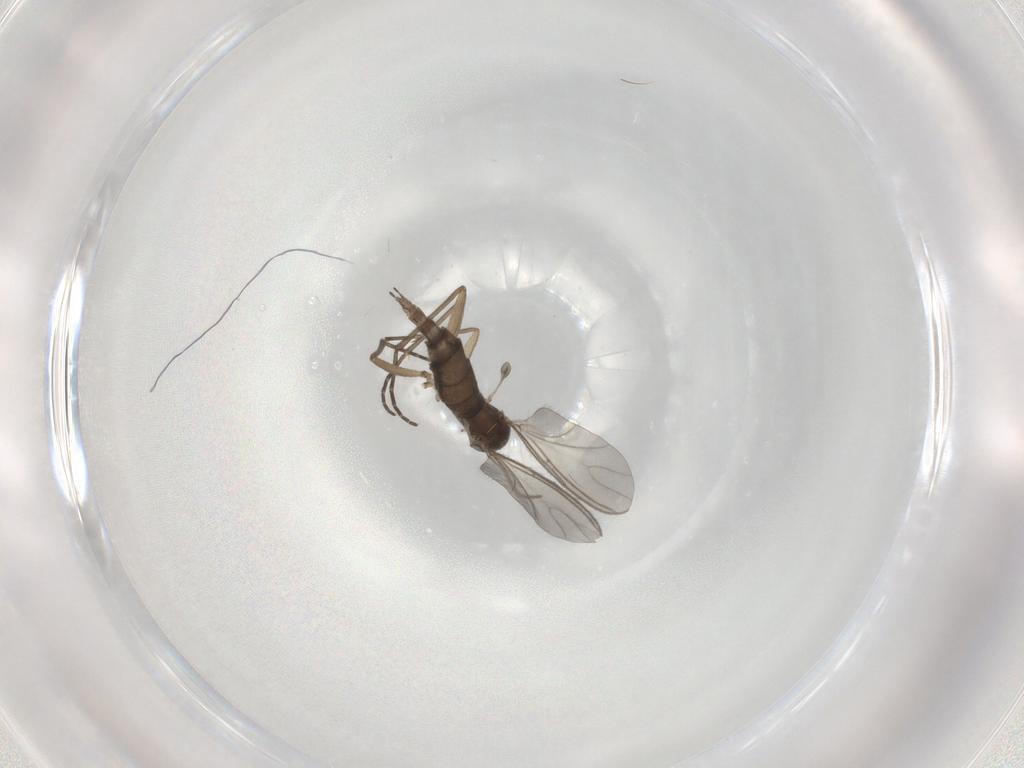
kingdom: Animalia
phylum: Arthropoda
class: Insecta
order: Diptera
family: Sciaridae
